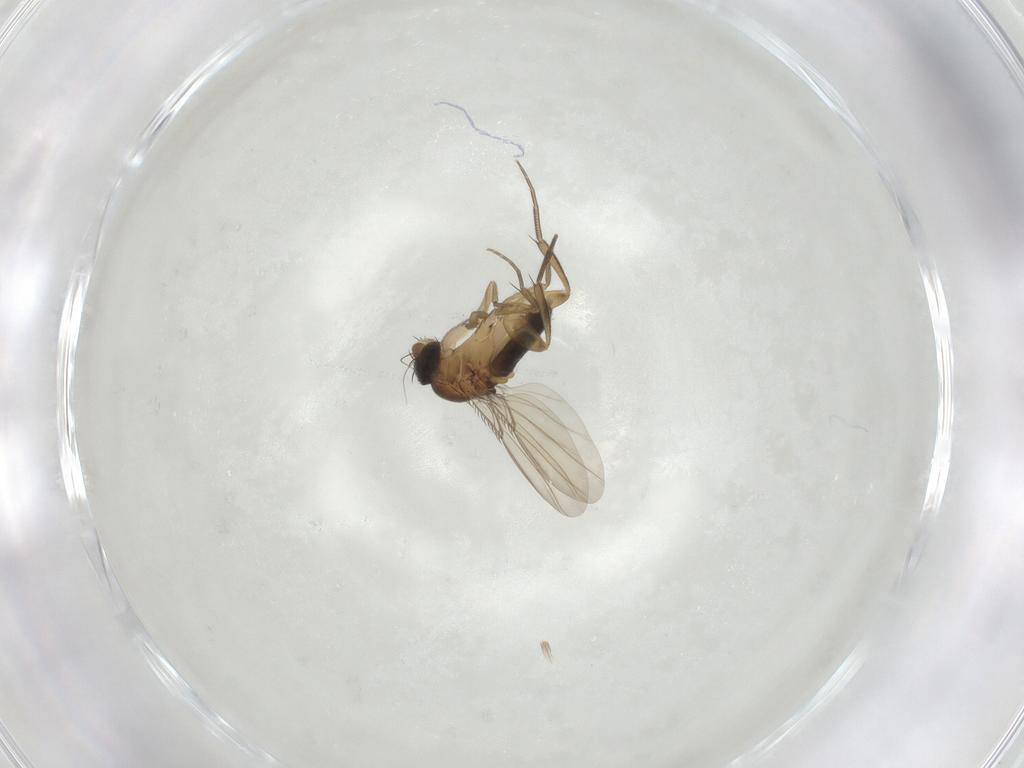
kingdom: Animalia
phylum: Arthropoda
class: Insecta
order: Diptera
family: Phoridae
